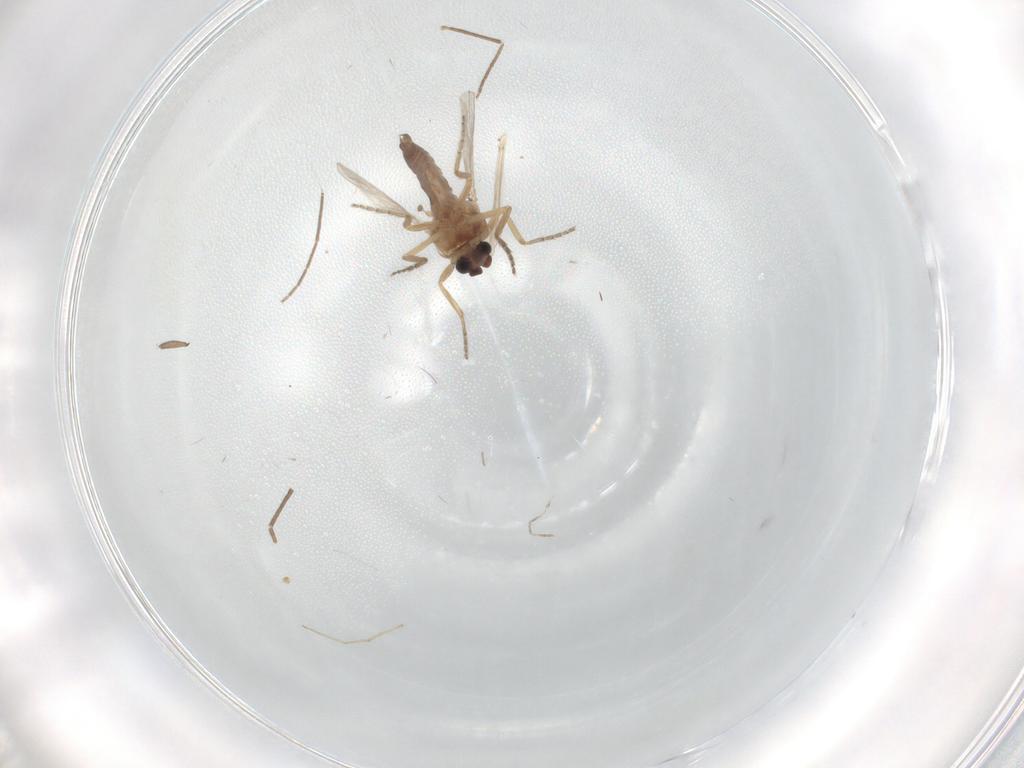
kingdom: Animalia
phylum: Arthropoda
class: Insecta
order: Diptera
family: Ceratopogonidae
